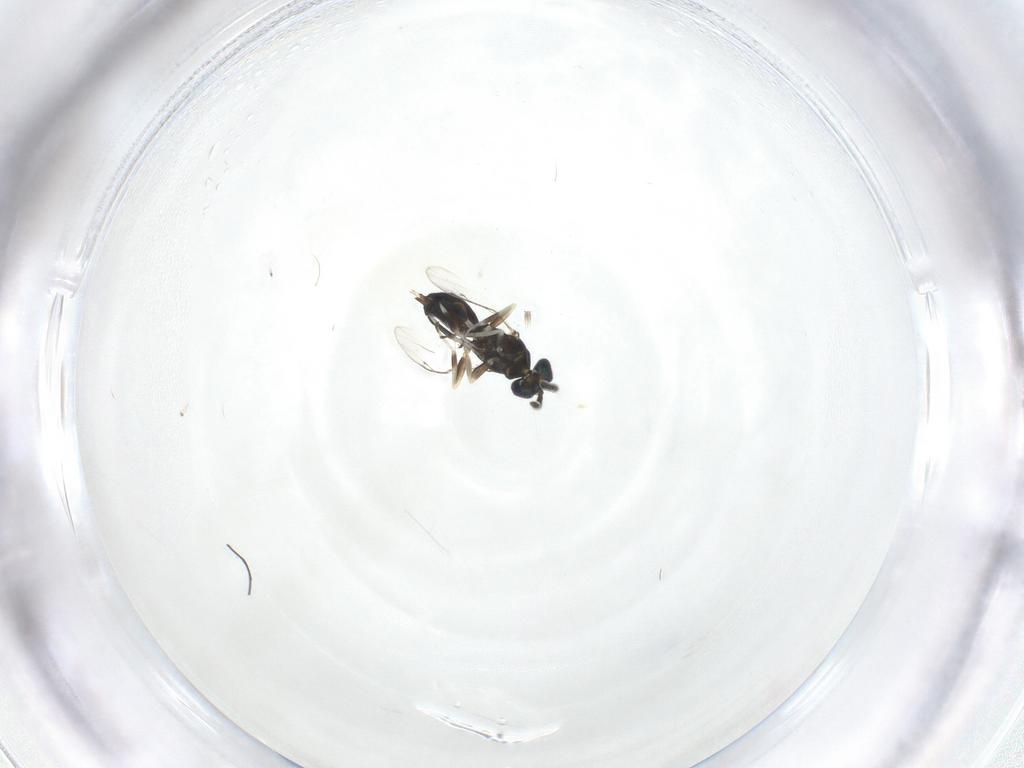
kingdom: Animalia
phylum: Arthropoda
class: Insecta
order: Hymenoptera
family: Eupelmidae
